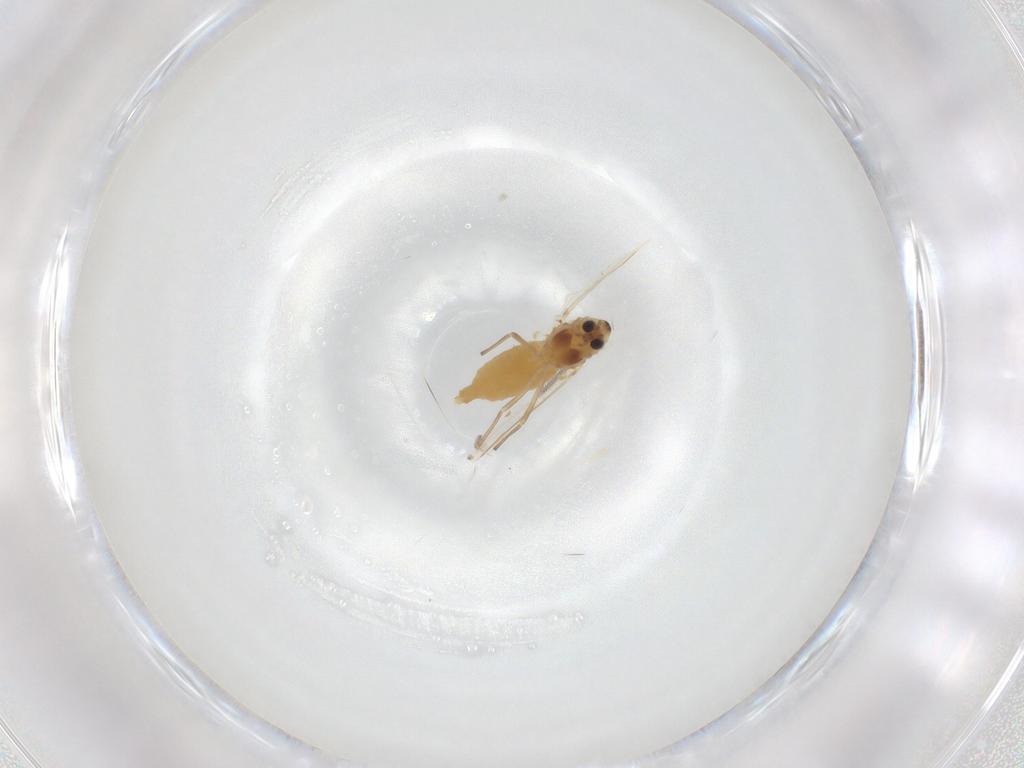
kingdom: Animalia
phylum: Arthropoda
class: Insecta
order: Diptera
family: Chironomidae
